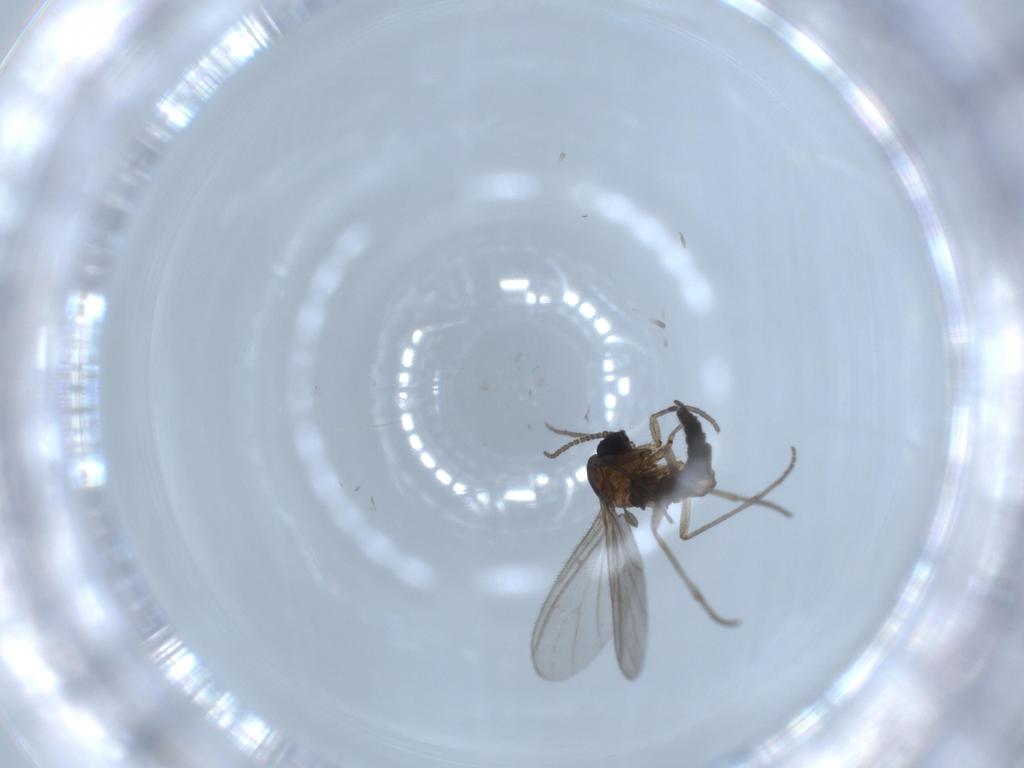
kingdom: Animalia
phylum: Arthropoda
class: Insecta
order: Diptera
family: Sciaridae
